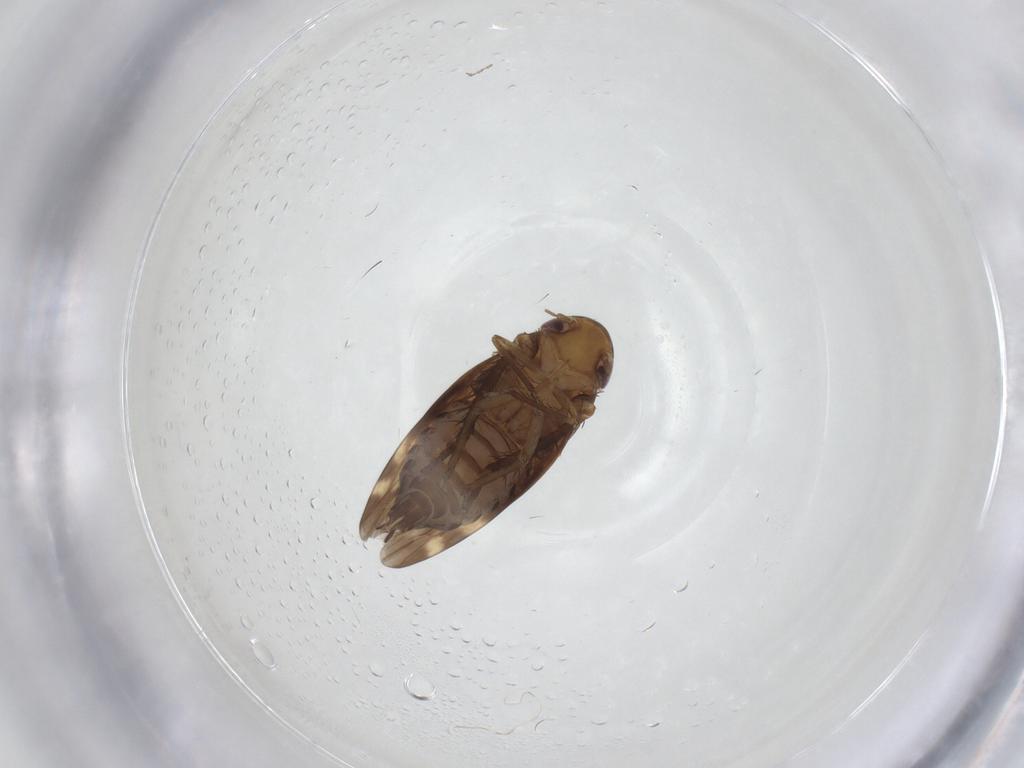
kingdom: Animalia
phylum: Arthropoda
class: Insecta
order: Hemiptera
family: Cicadellidae
